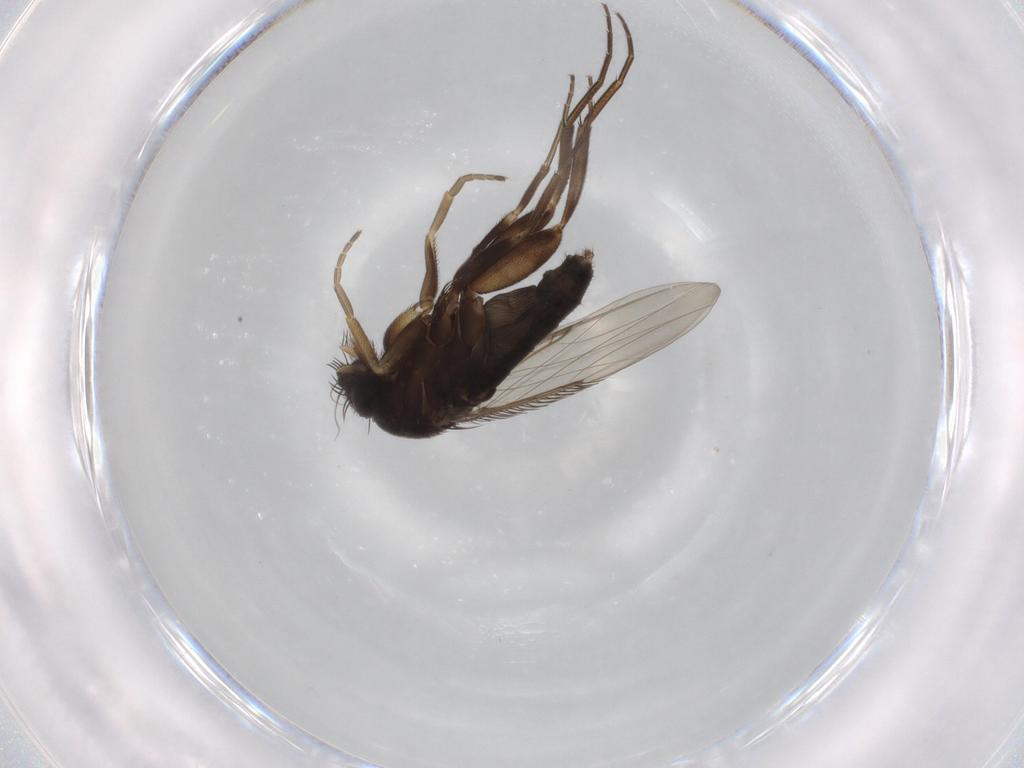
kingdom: Animalia
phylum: Arthropoda
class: Insecta
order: Diptera
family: Phoridae
